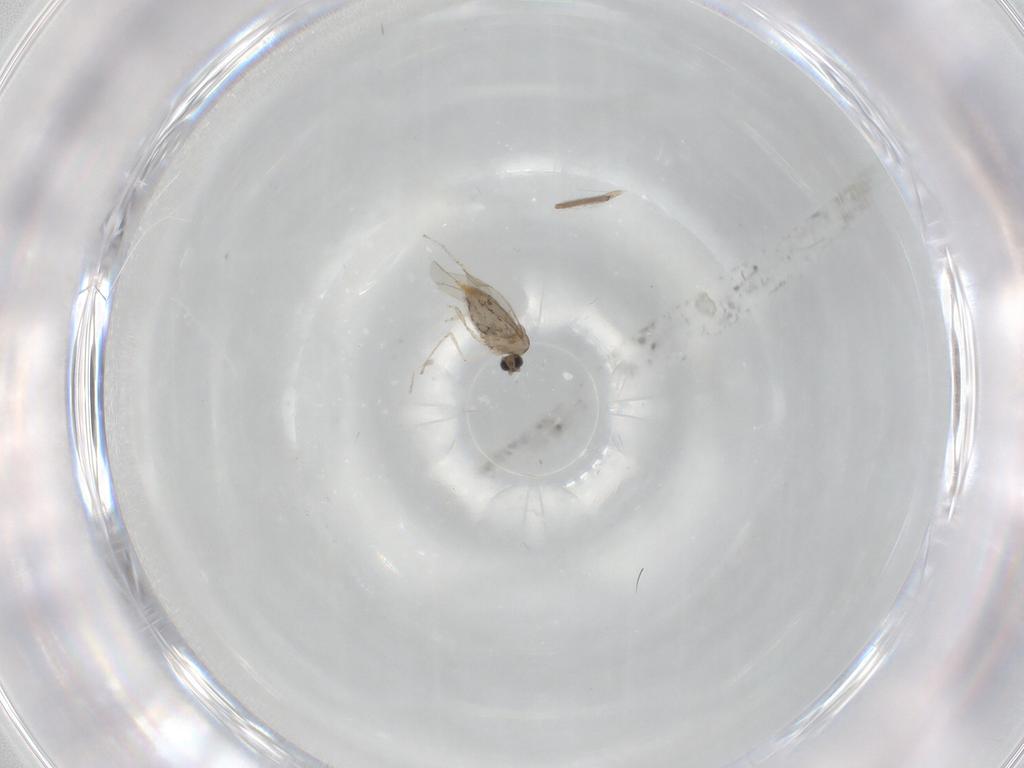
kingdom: Animalia
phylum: Arthropoda
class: Insecta
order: Diptera
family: Chironomidae
